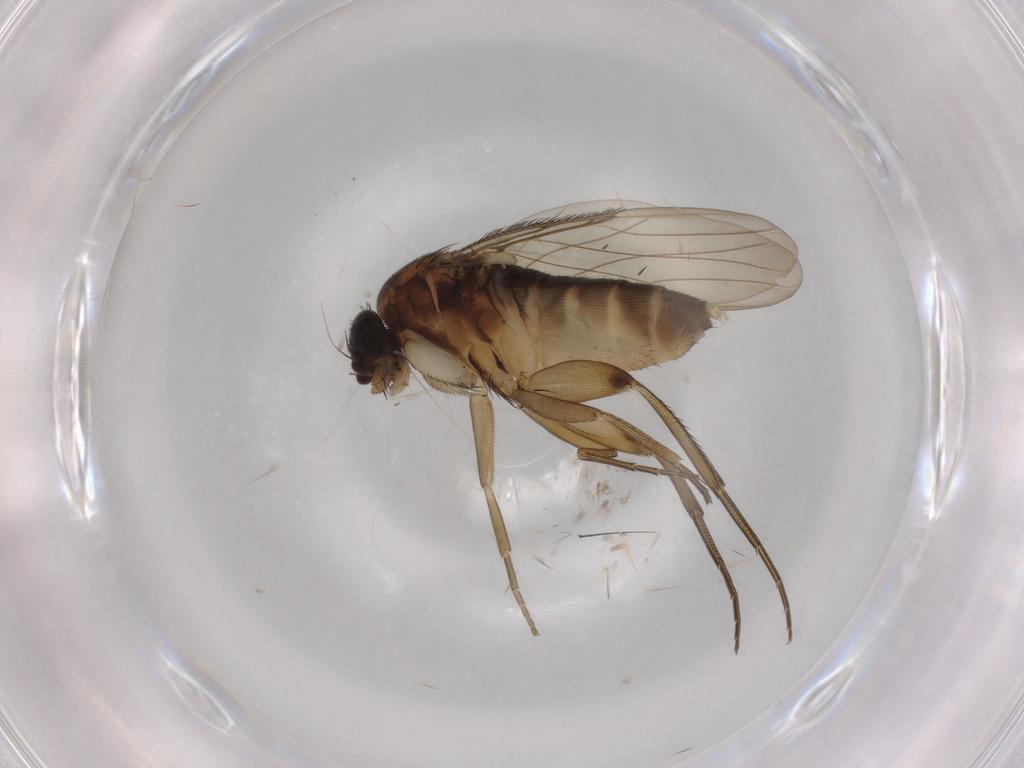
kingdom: Animalia
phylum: Arthropoda
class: Insecta
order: Diptera
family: Phoridae
